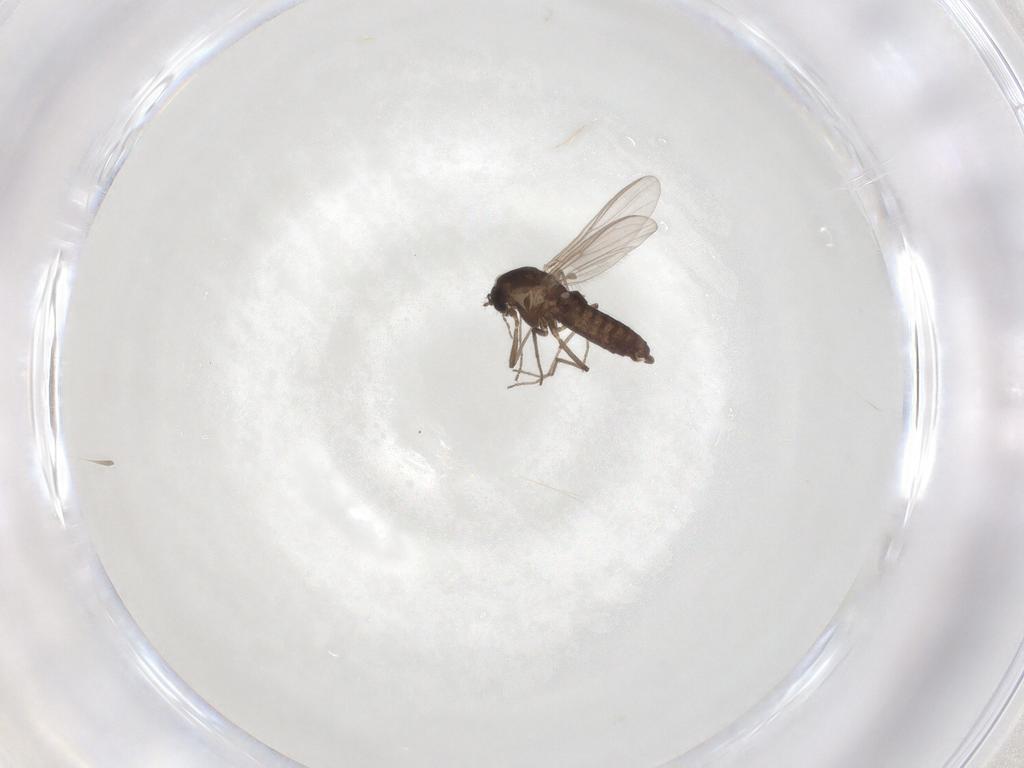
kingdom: Animalia
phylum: Arthropoda
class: Insecta
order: Diptera
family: Chironomidae
